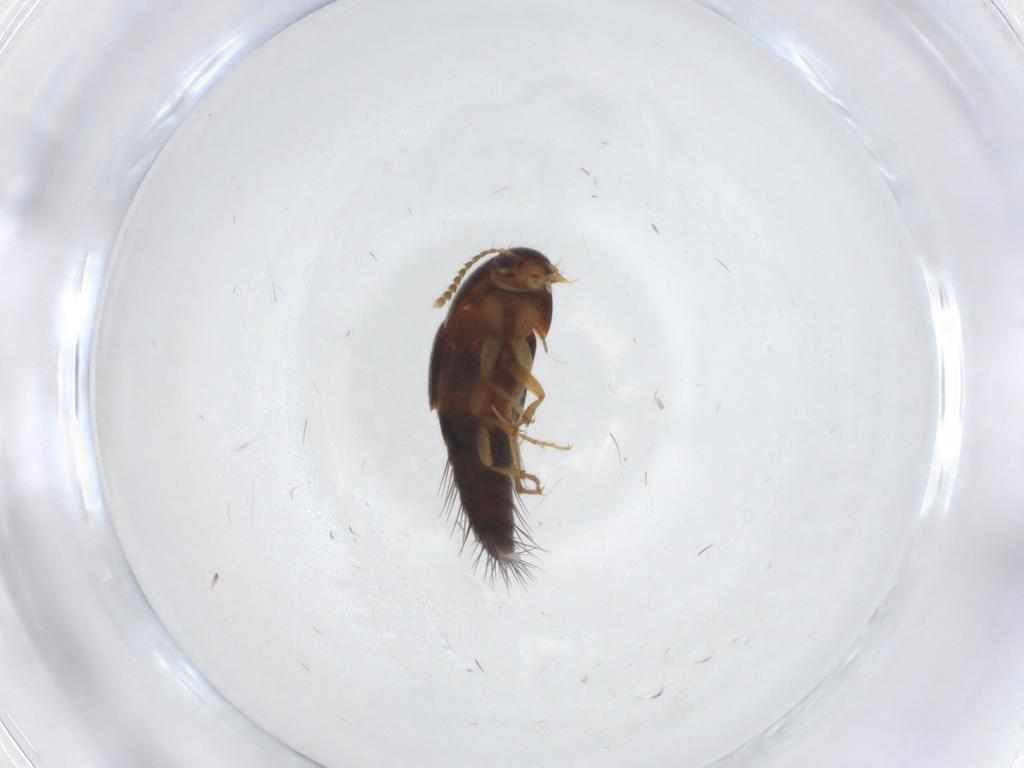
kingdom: Animalia
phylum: Arthropoda
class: Insecta
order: Coleoptera
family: Staphylinidae
